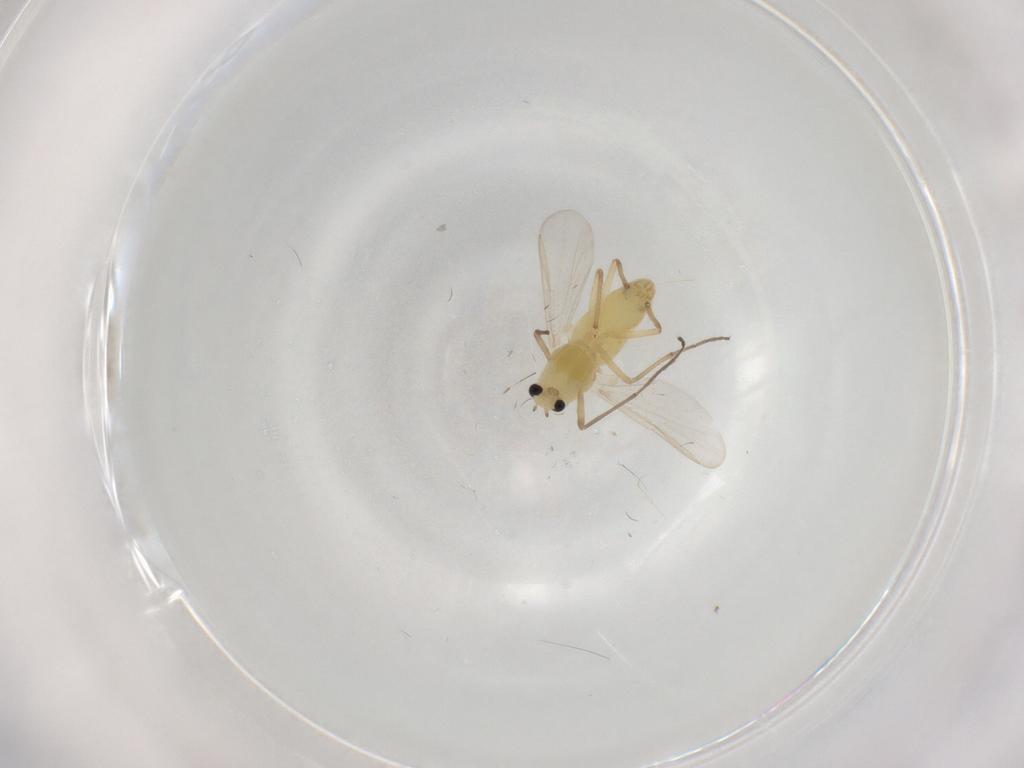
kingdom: Animalia
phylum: Arthropoda
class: Insecta
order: Diptera
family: Chironomidae
